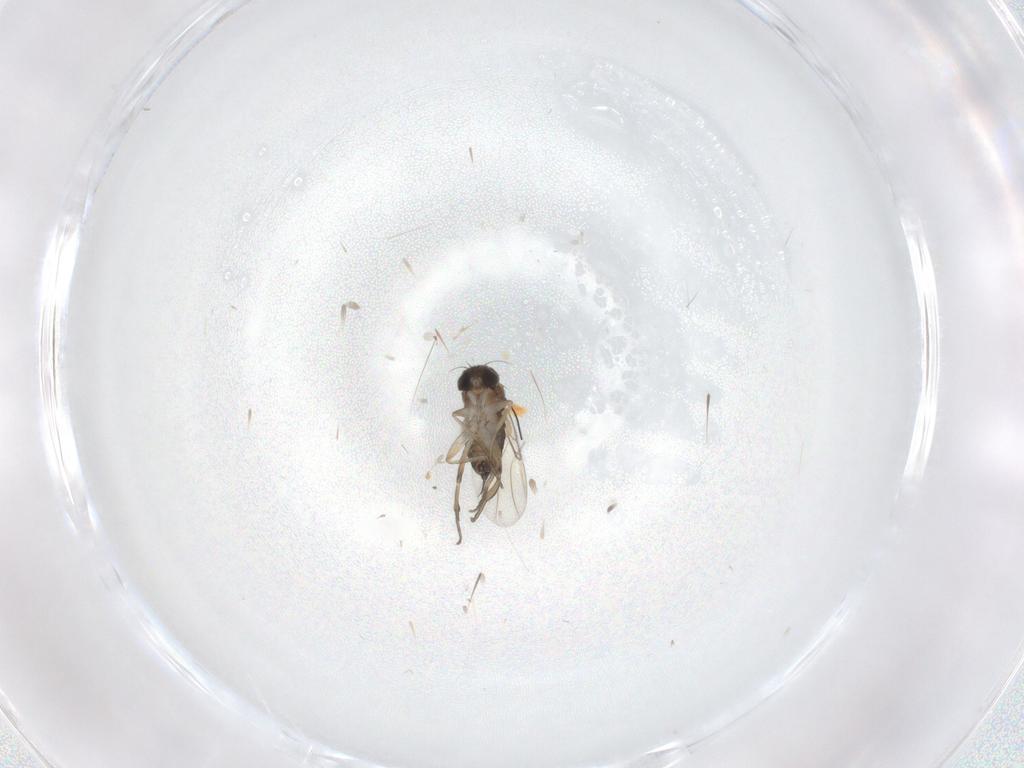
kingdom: Animalia
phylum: Arthropoda
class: Insecta
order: Diptera
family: Phoridae
